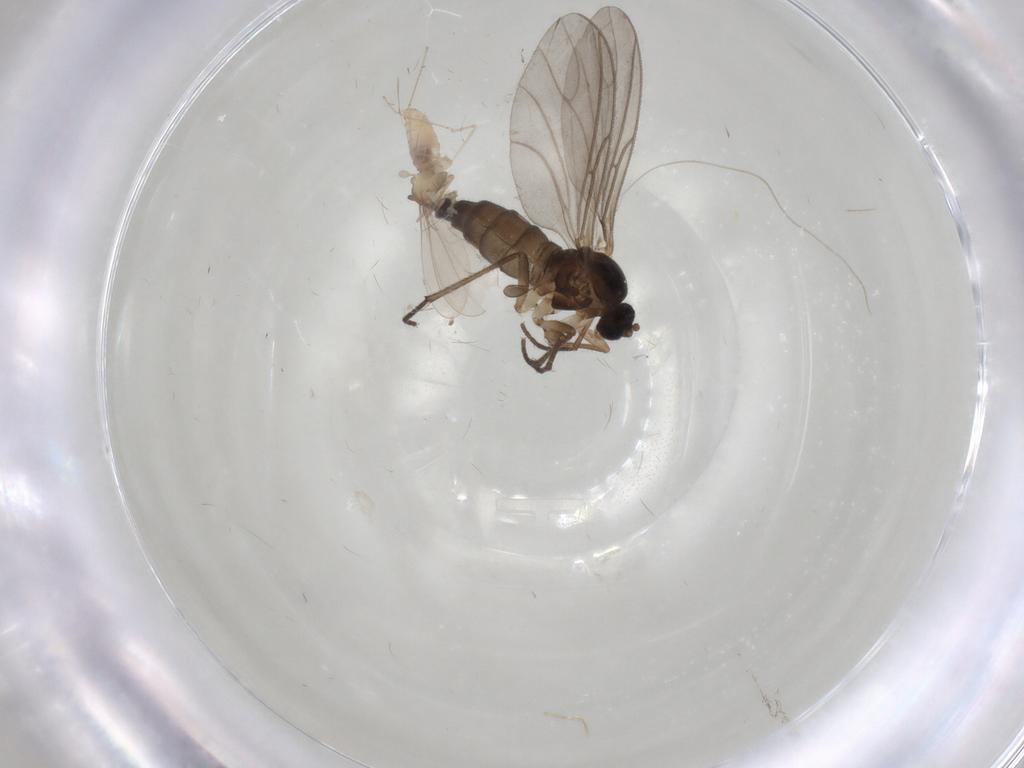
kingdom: Animalia
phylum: Arthropoda
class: Insecta
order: Diptera
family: Sciaridae
